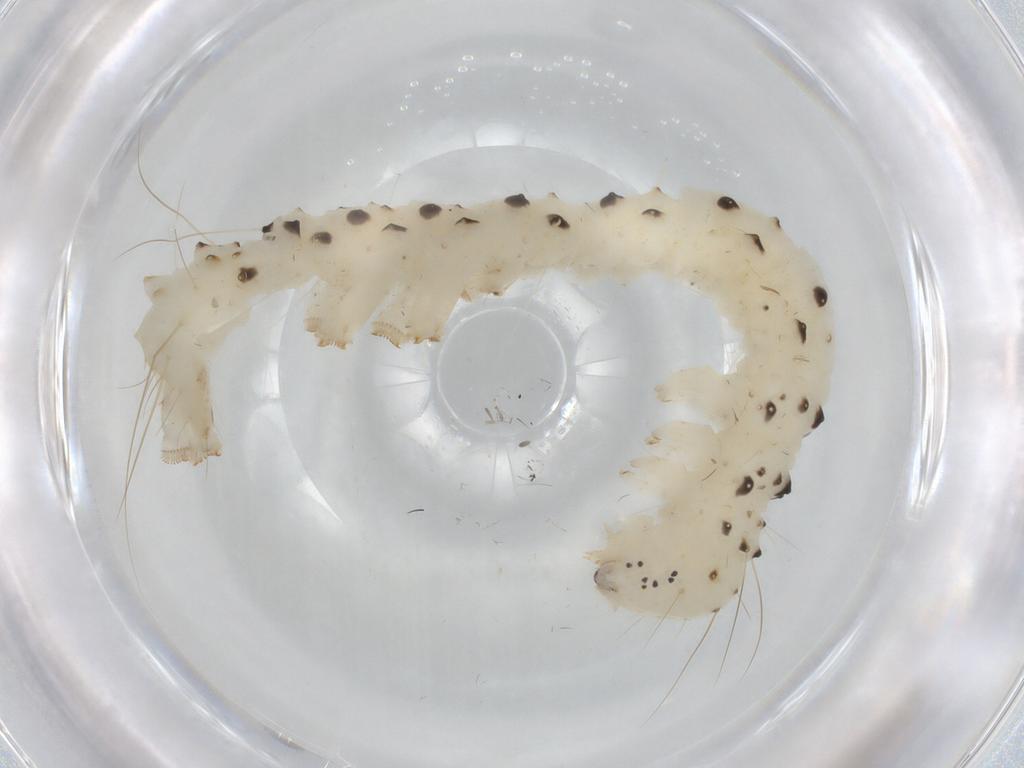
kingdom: Animalia
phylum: Arthropoda
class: Insecta
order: Lepidoptera
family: Erebidae
